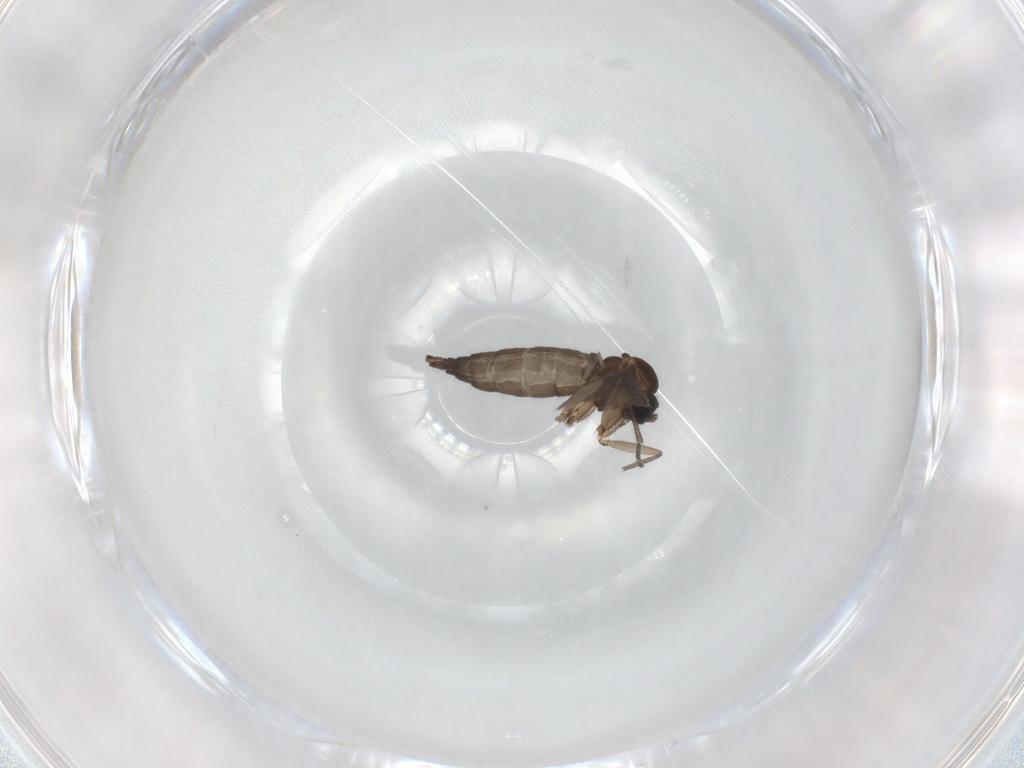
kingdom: Animalia
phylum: Arthropoda
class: Insecta
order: Diptera
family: Sciaridae
